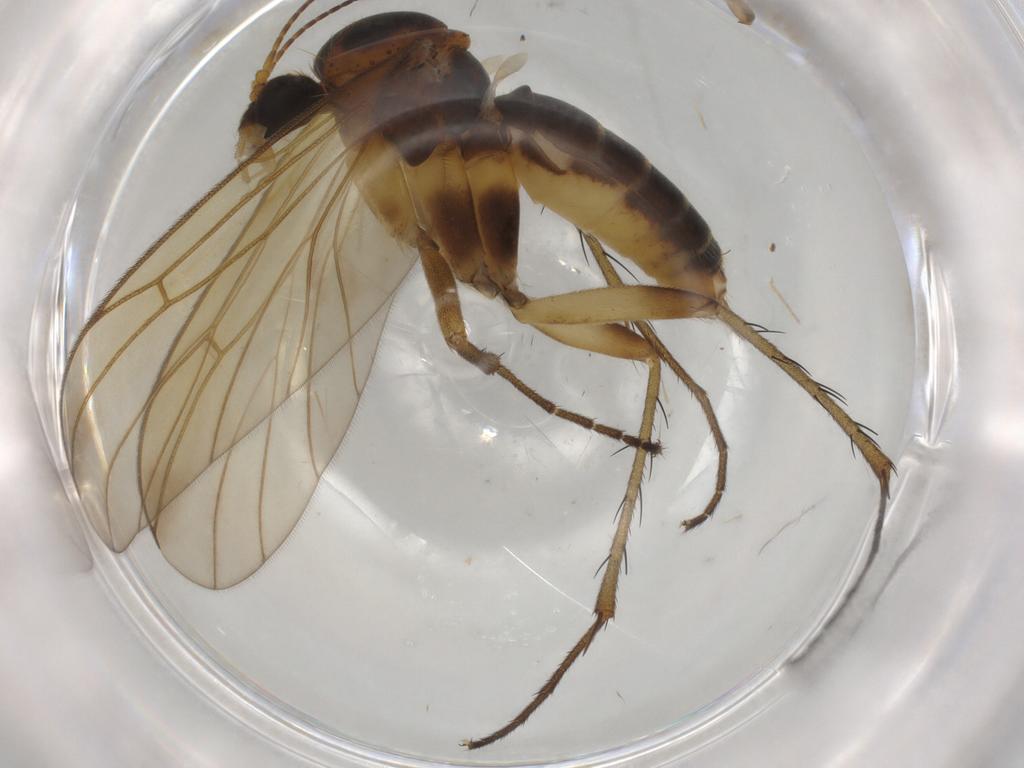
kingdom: Animalia
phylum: Arthropoda
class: Insecta
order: Diptera
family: Mycetophilidae
